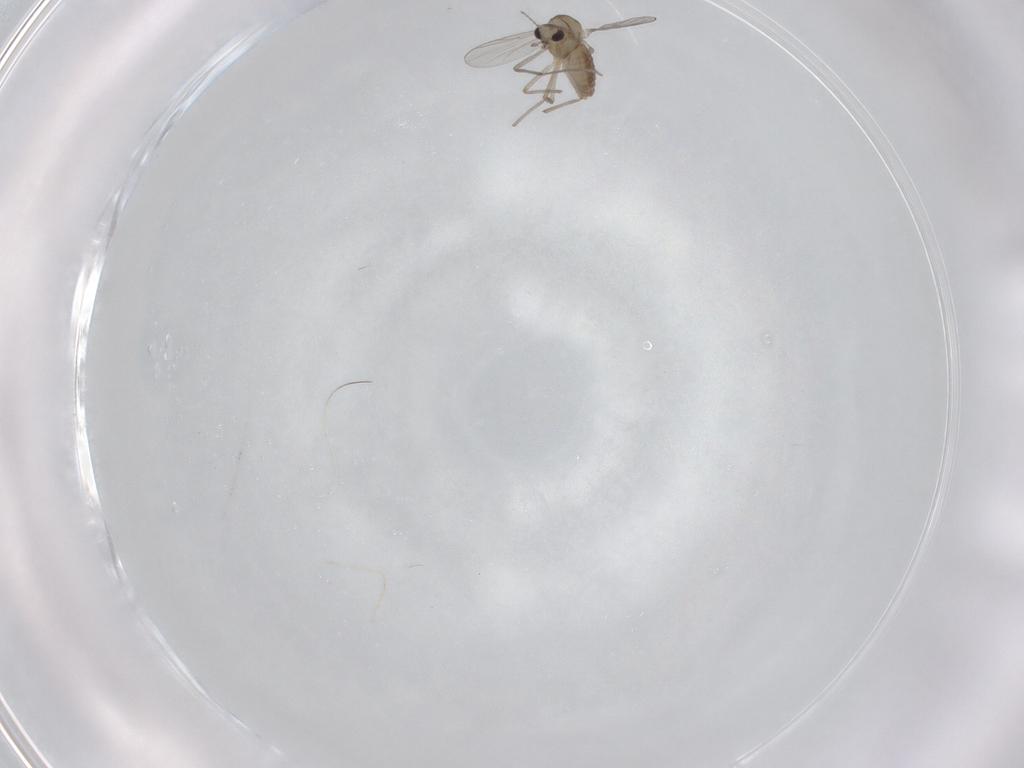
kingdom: Animalia
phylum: Arthropoda
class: Insecta
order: Diptera
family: Chironomidae
